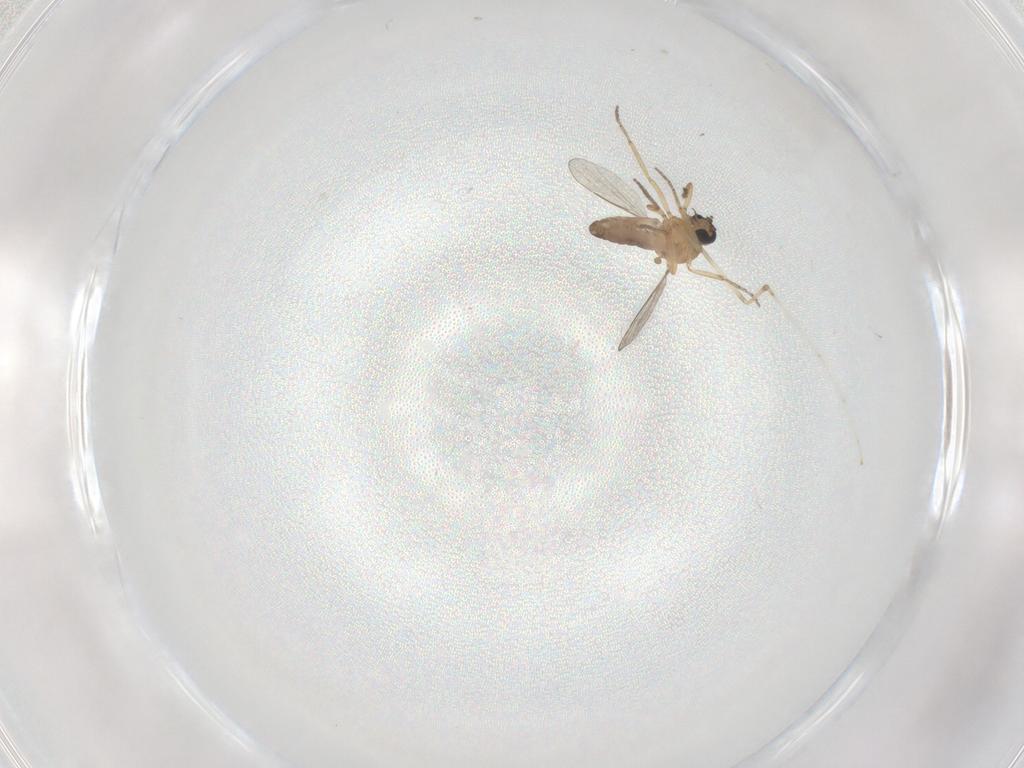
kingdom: Animalia
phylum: Arthropoda
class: Insecta
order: Diptera
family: Cecidomyiidae
